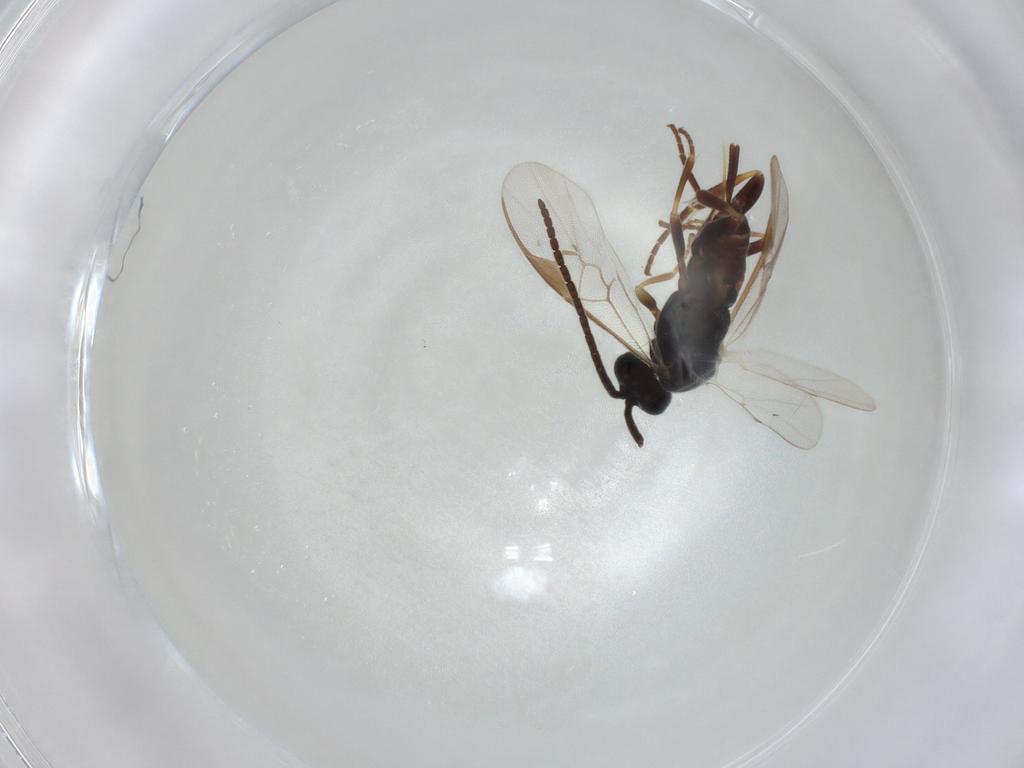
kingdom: Animalia
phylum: Arthropoda
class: Insecta
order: Hymenoptera
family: Braconidae
